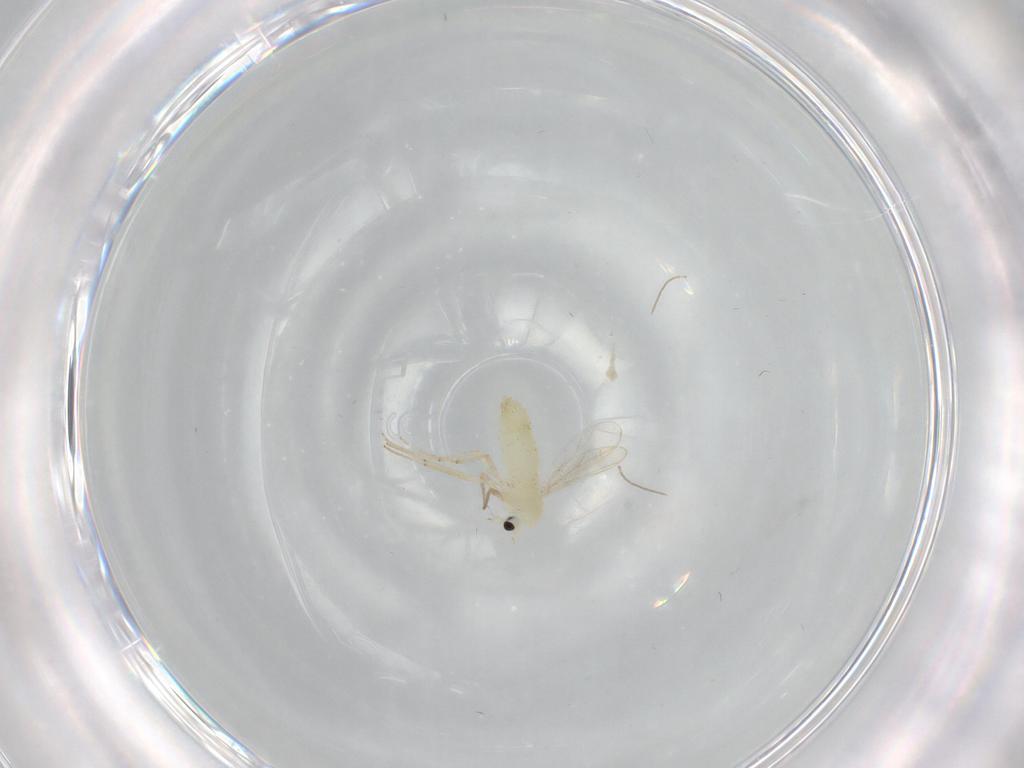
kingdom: Animalia
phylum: Arthropoda
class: Insecta
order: Diptera
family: Chironomidae
